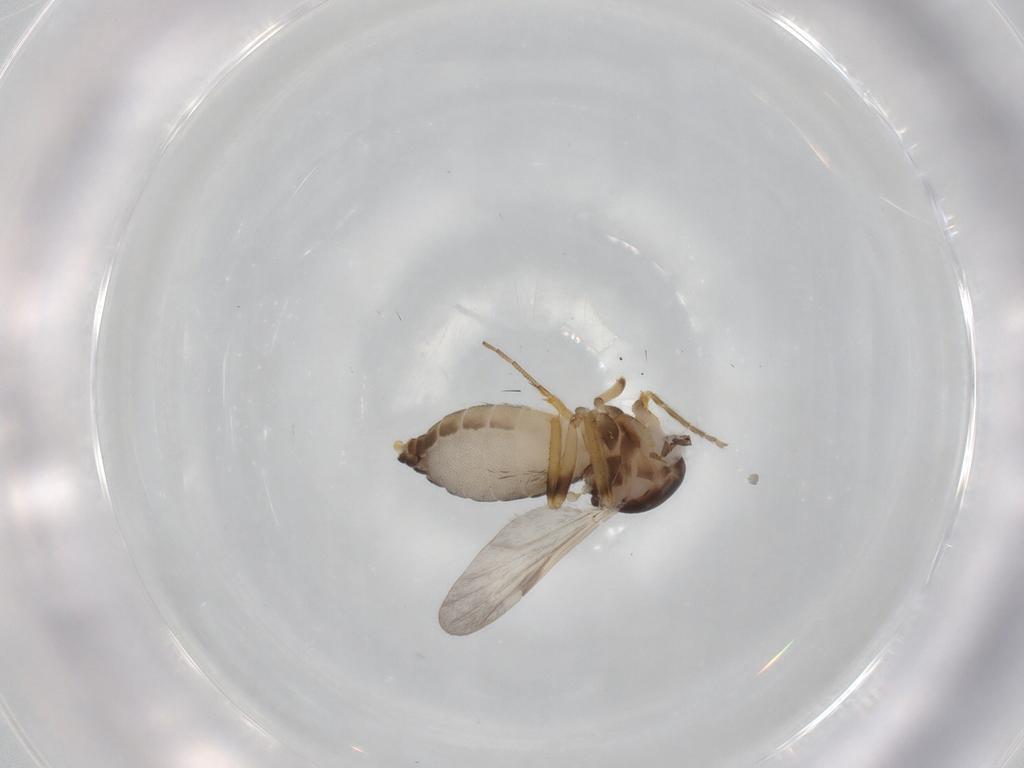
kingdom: Animalia
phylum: Arthropoda
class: Insecta
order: Diptera
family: Ceratopogonidae
